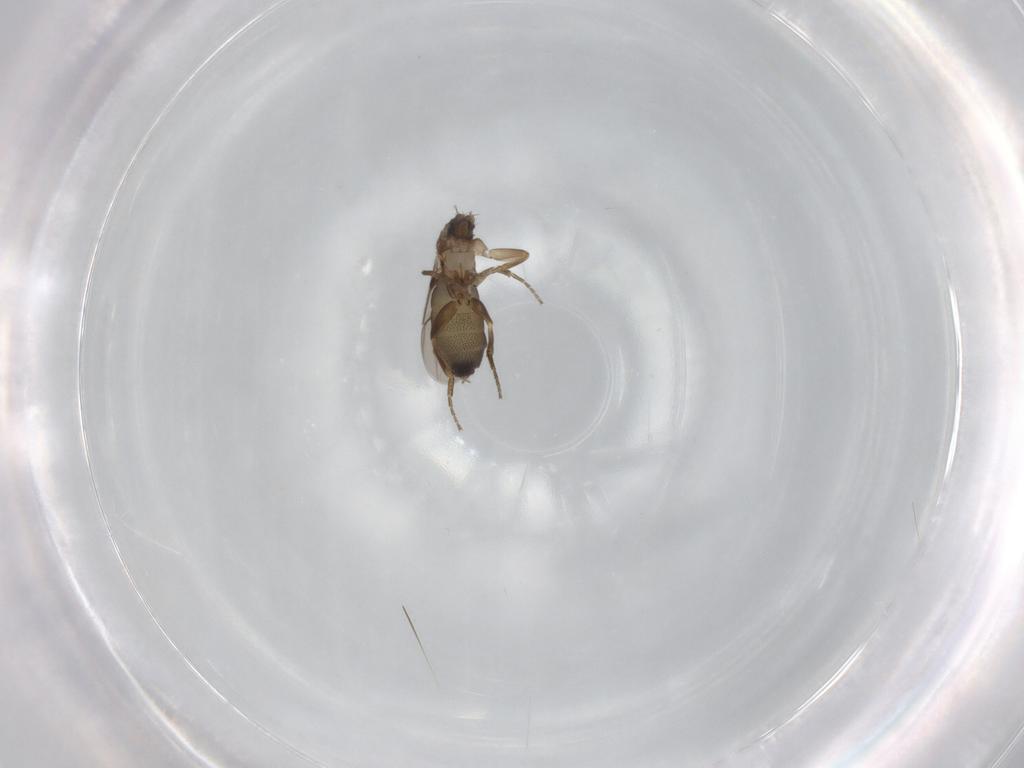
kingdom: Animalia
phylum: Arthropoda
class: Insecta
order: Diptera
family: Phoridae
